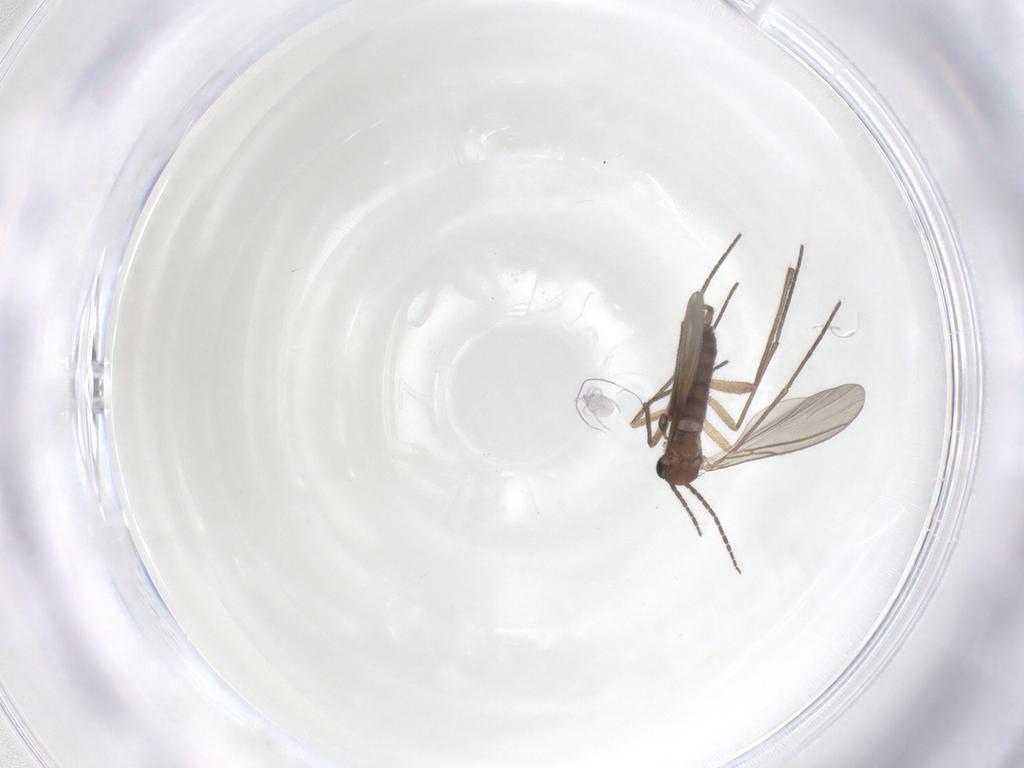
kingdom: Animalia
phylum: Arthropoda
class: Insecta
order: Diptera
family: Sciaridae
